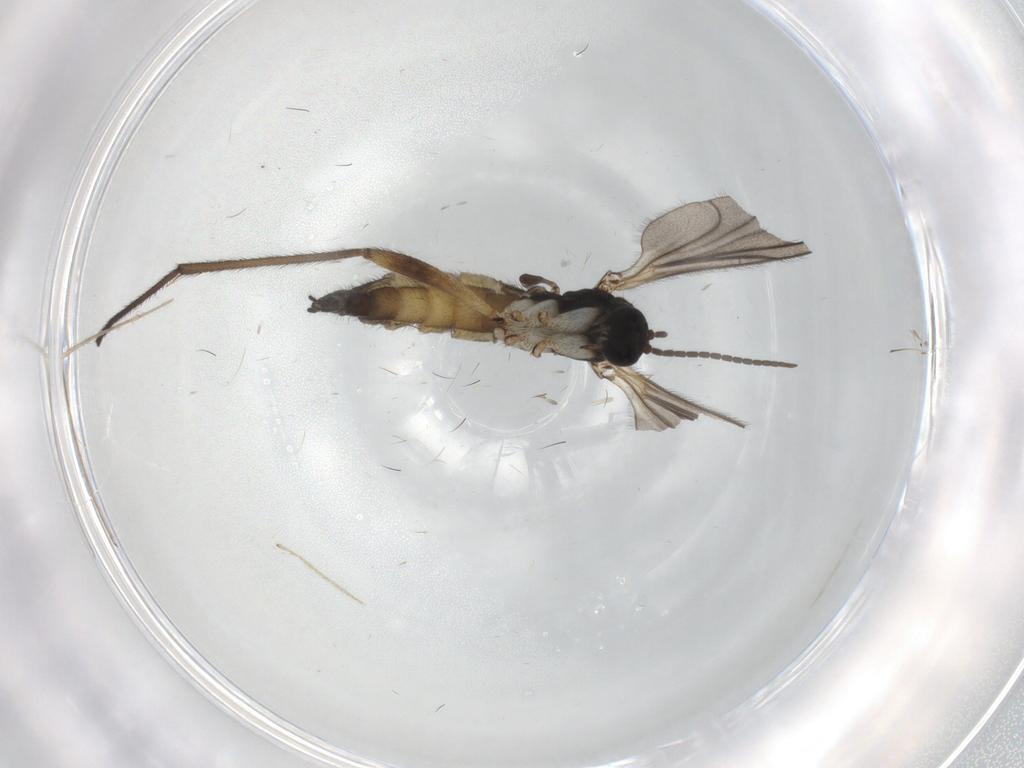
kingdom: Animalia
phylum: Arthropoda
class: Insecta
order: Diptera
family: Sciaridae
